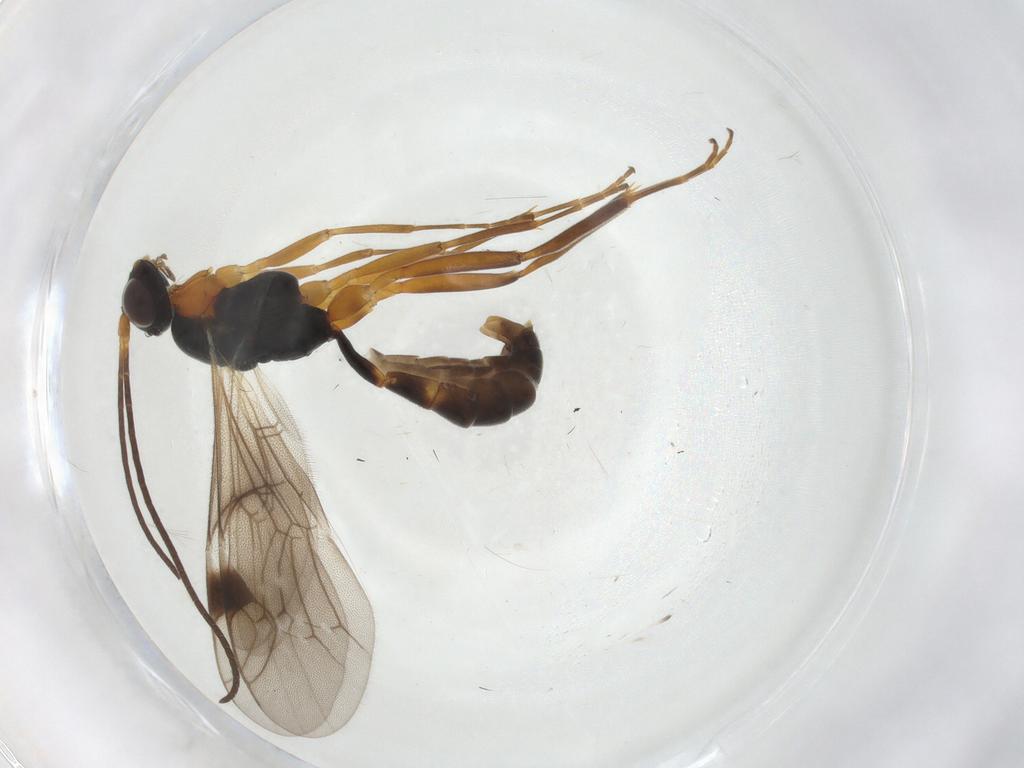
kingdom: Animalia
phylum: Arthropoda
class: Insecta
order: Hymenoptera
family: Ichneumonidae
